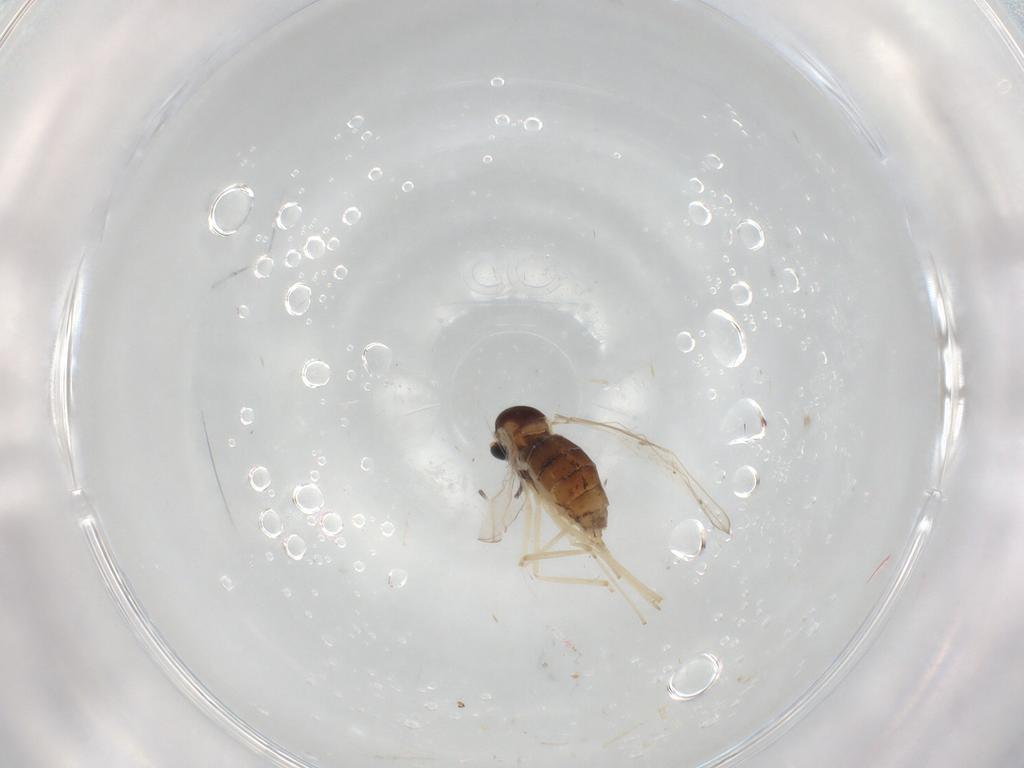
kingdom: Animalia
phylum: Arthropoda
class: Insecta
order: Diptera
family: Cecidomyiidae
